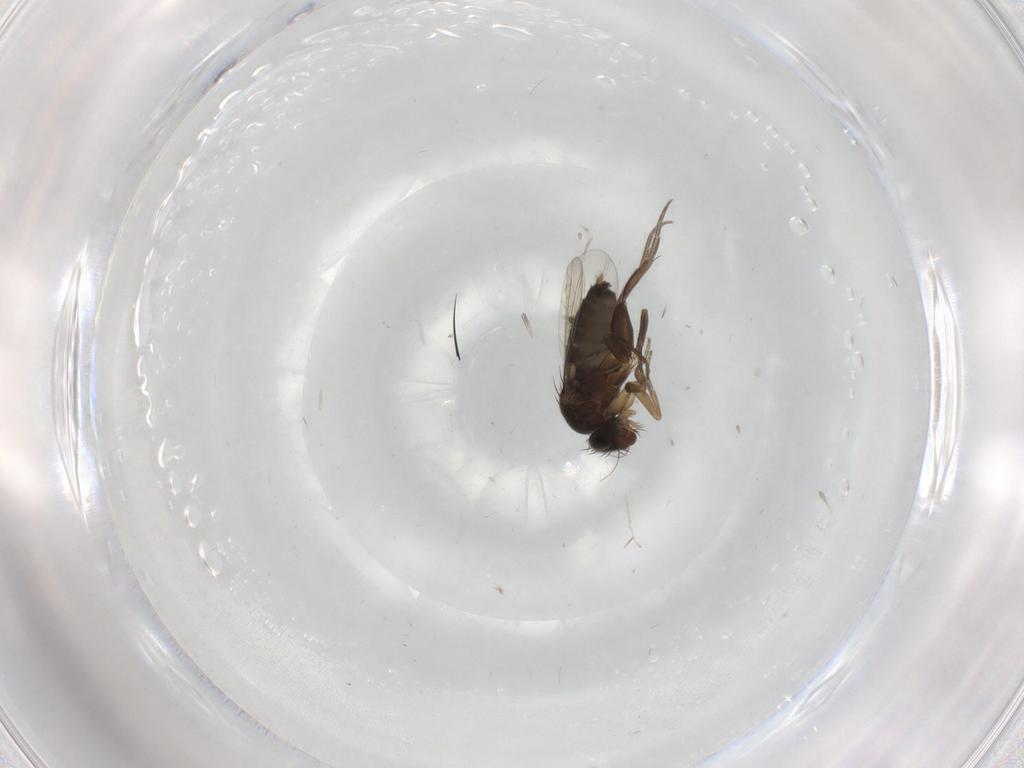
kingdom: Animalia
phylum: Arthropoda
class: Insecta
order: Diptera
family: Phoridae
